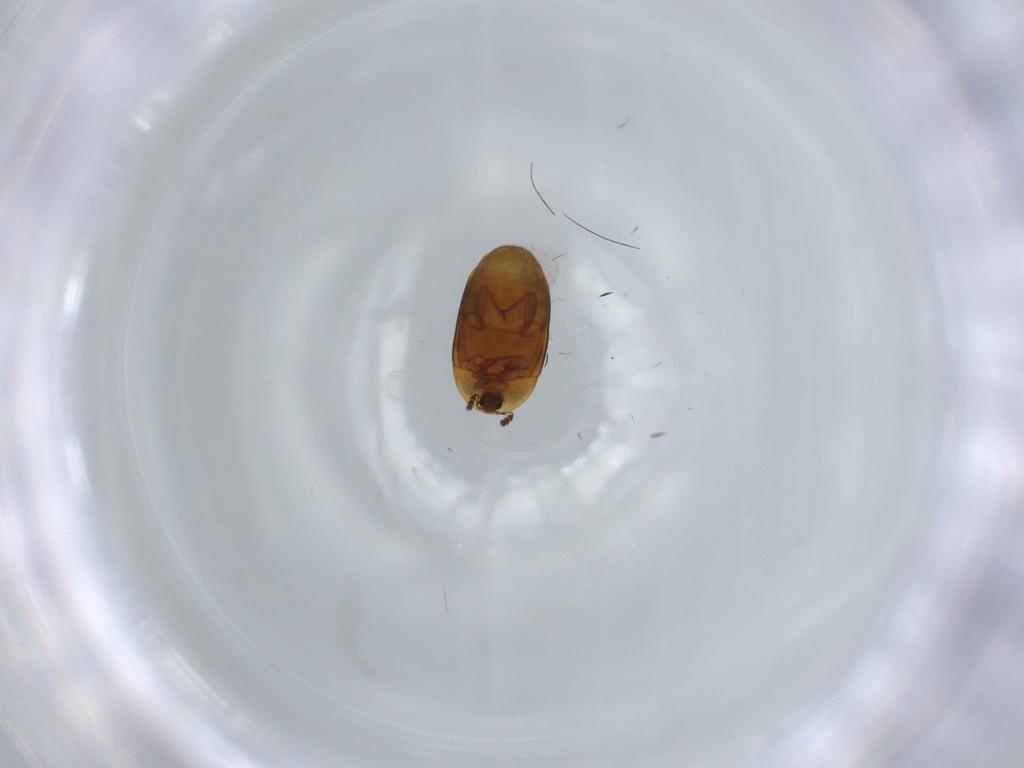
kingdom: Animalia
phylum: Arthropoda
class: Insecta
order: Coleoptera
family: Corylophidae
